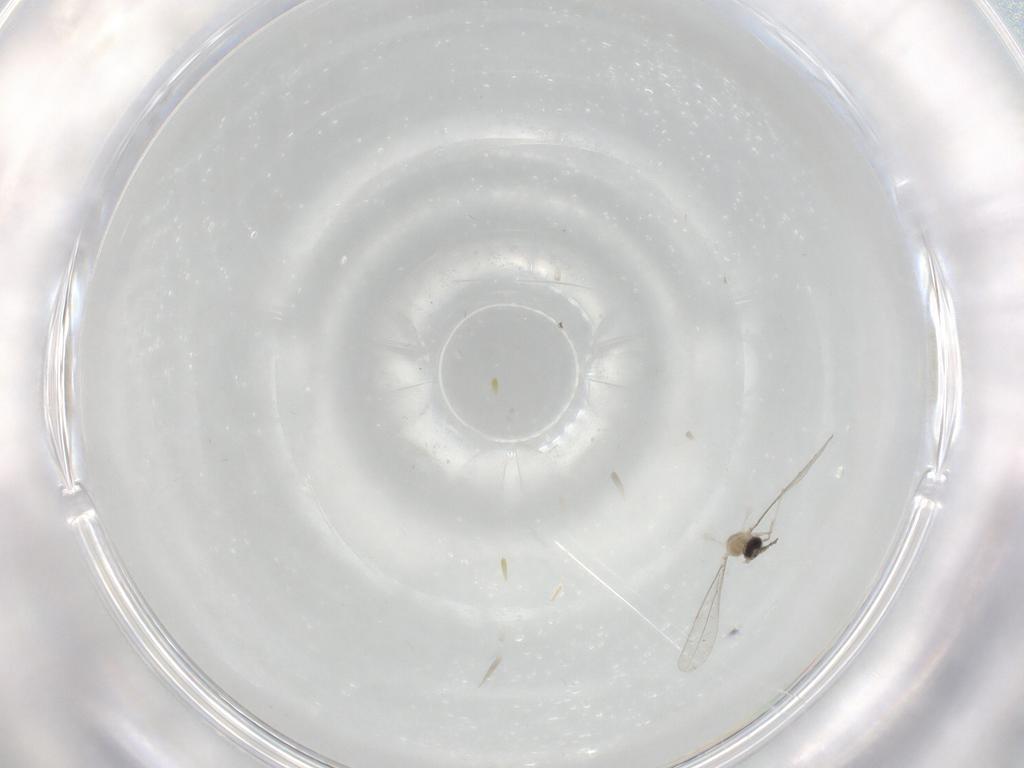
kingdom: Animalia
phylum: Arthropoda
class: Insecta
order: Diptera
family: Cecidomyiidae
